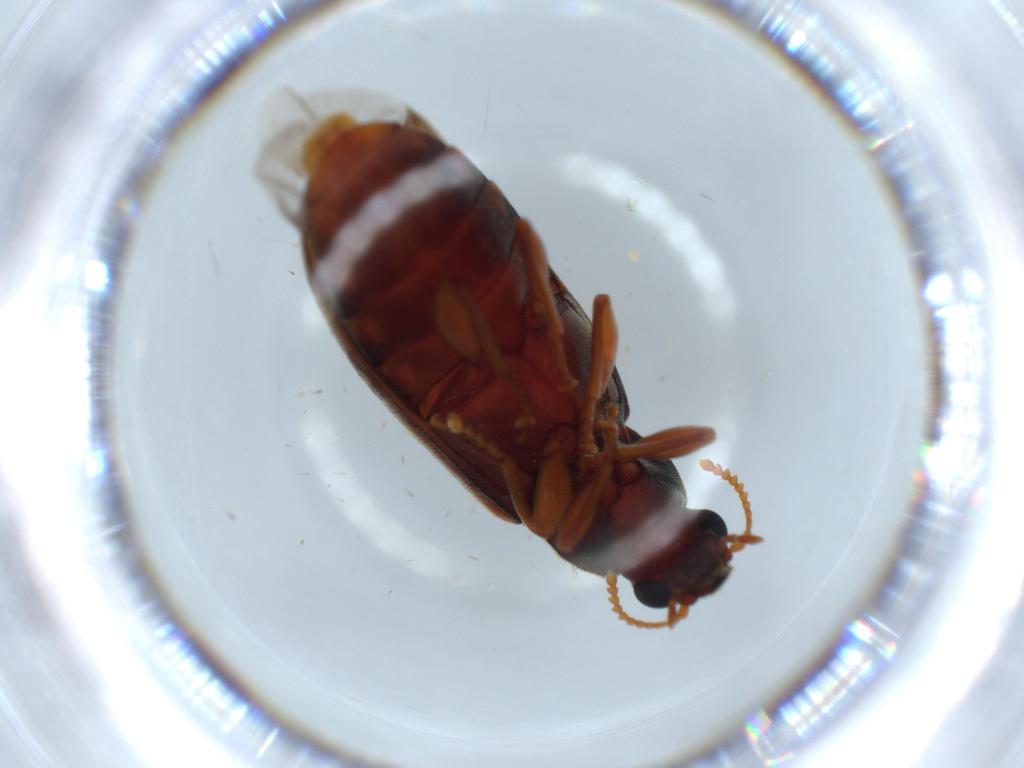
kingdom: Animalia
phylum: Arthropoda
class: Insecta
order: Coleoptera
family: Mycteridae
